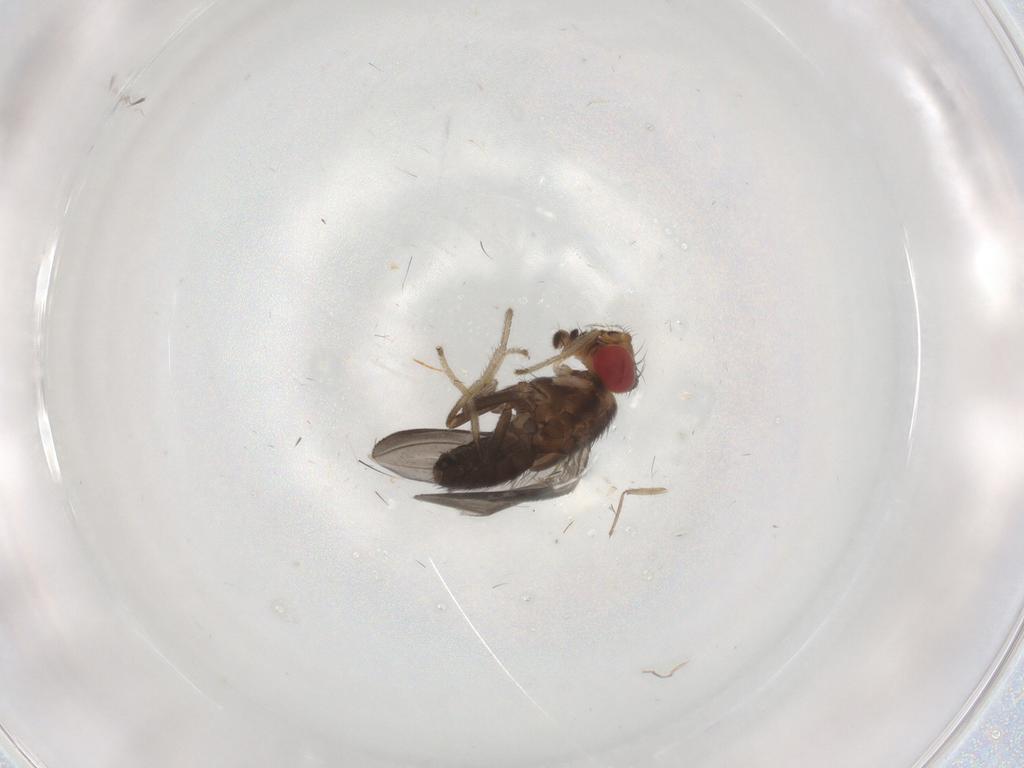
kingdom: Animalia
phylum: Arthropoda
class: Insecta
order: Diptera
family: Drosophilidae
